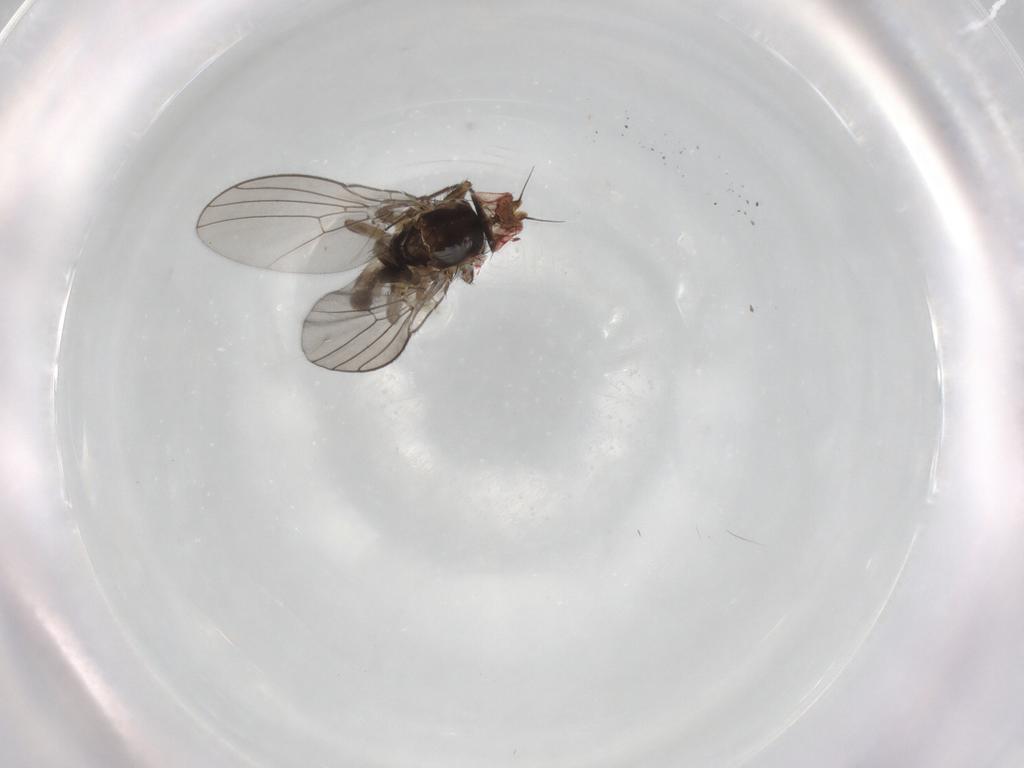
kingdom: Animalia
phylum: Arthropoda
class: Insecta
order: Diptera
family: Agromyzidae
